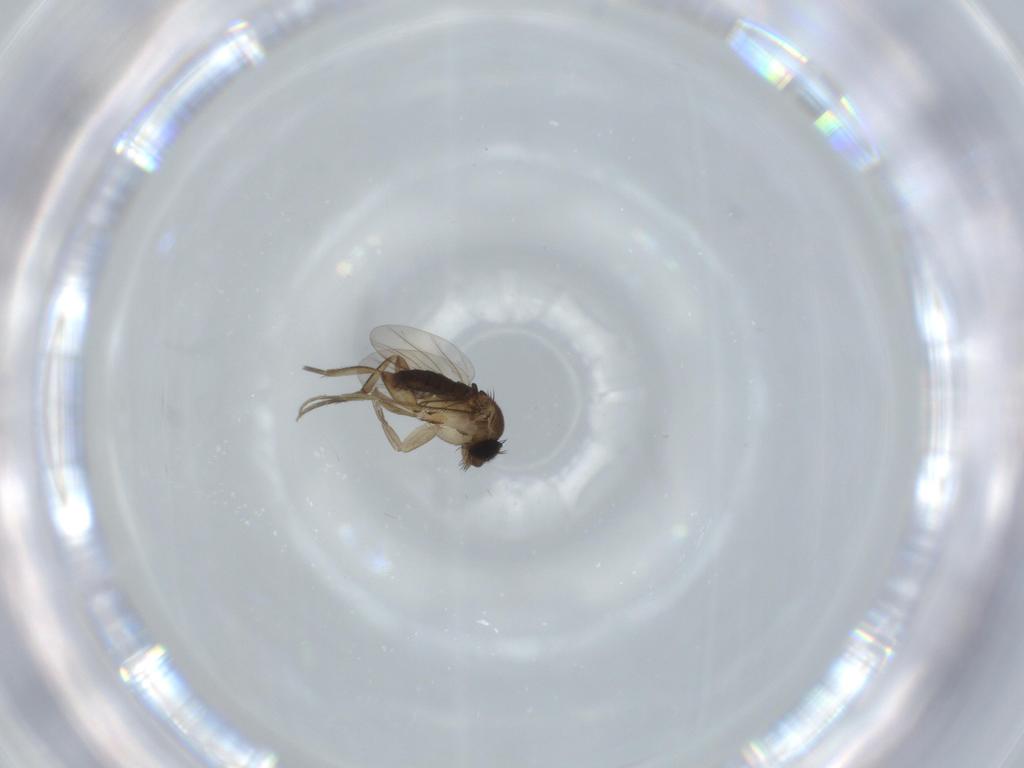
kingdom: Animalia
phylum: Arthropoda
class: Insecta
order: Diptera
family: Phoridae
